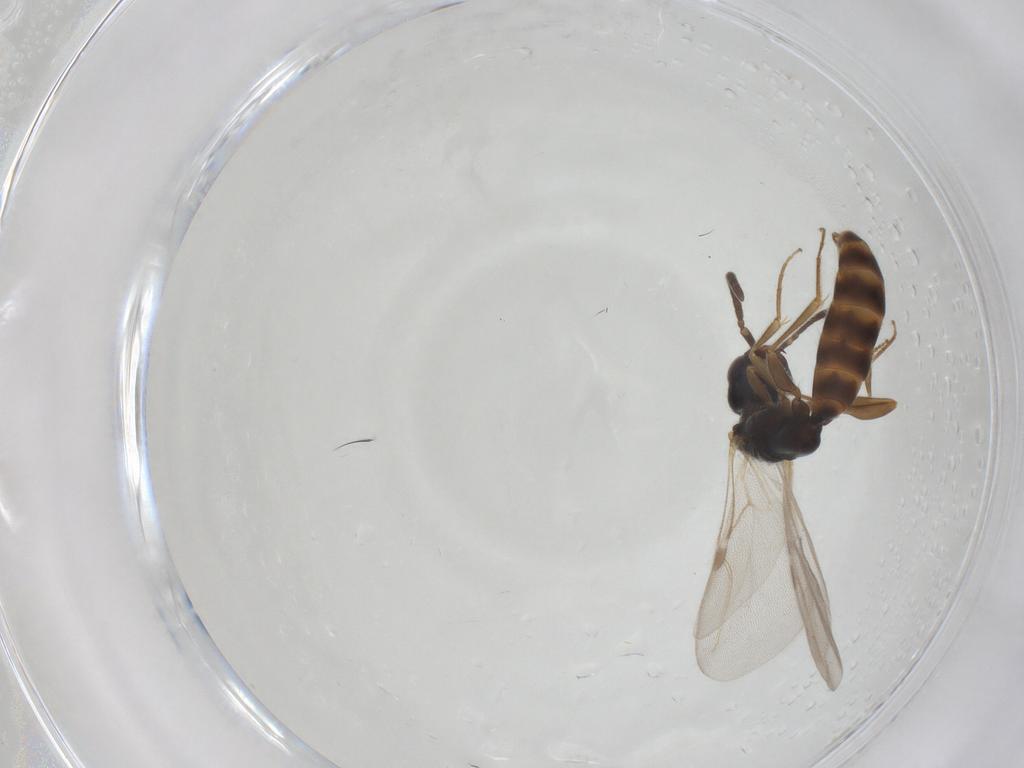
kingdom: Animalia
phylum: Arthropoda
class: Insecta
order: Hymenoptera
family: Bethylidae
